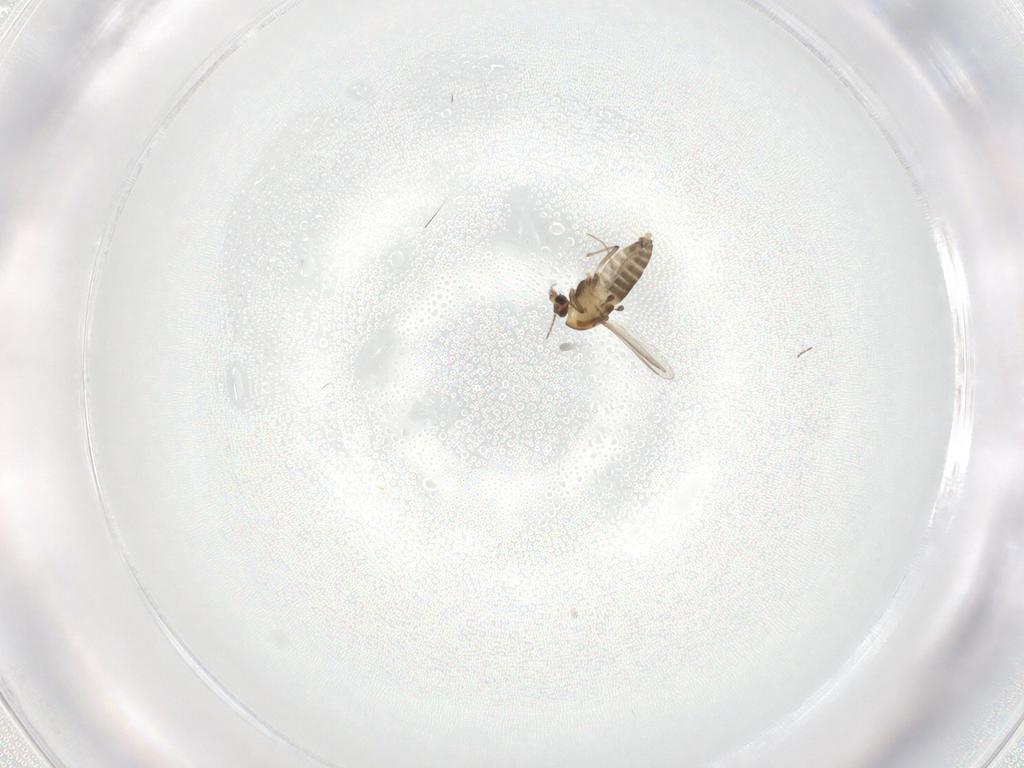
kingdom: Animalia
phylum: Arthropoda
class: Insecta
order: Diptera
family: Chironomidae
